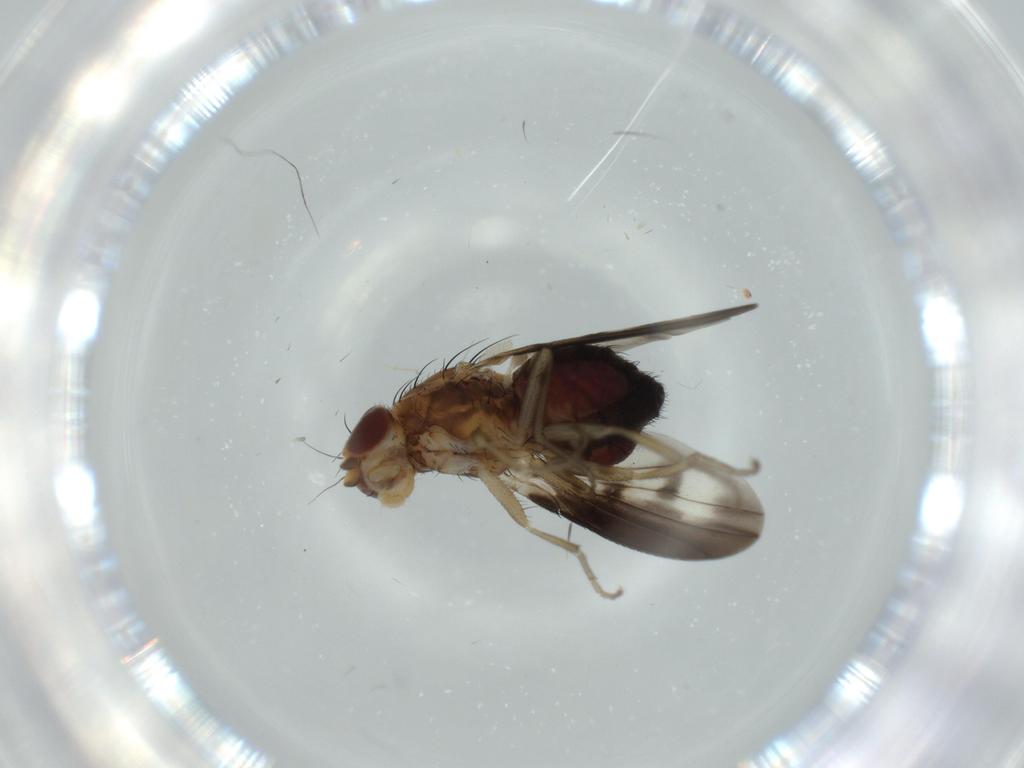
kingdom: Animalia
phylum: Arthropoda
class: Insecta
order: Diptera
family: Heleomyzidae
